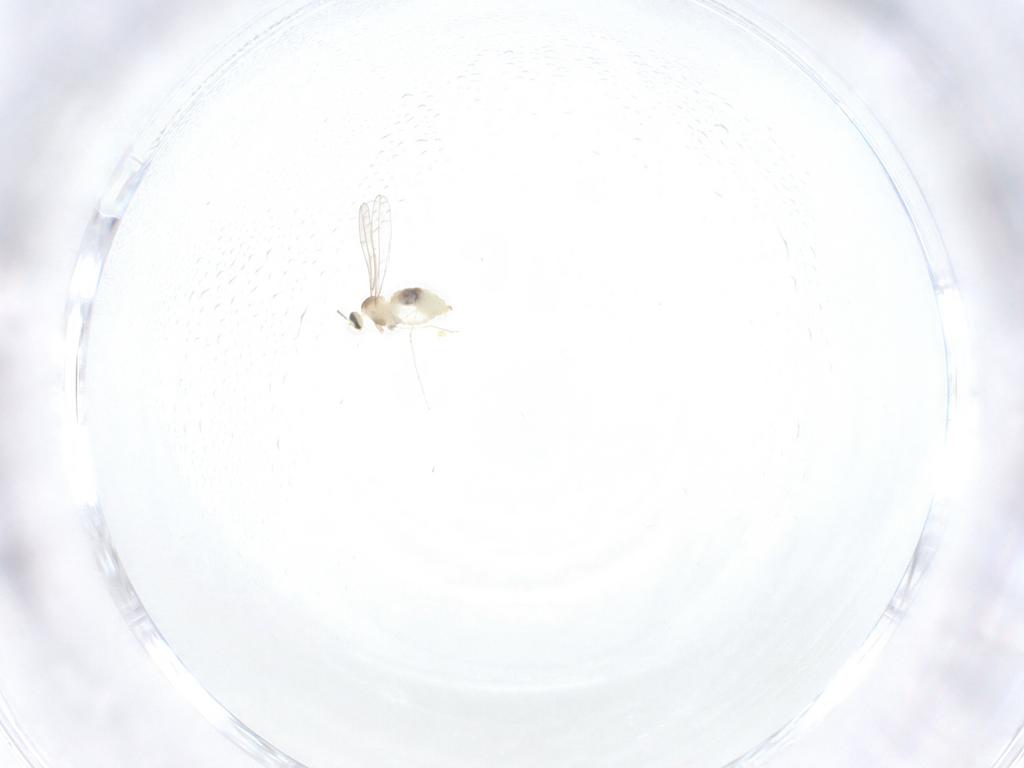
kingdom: Animalia
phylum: Arthropoda
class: Insecta
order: Diptera
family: Cecidomyiidae
